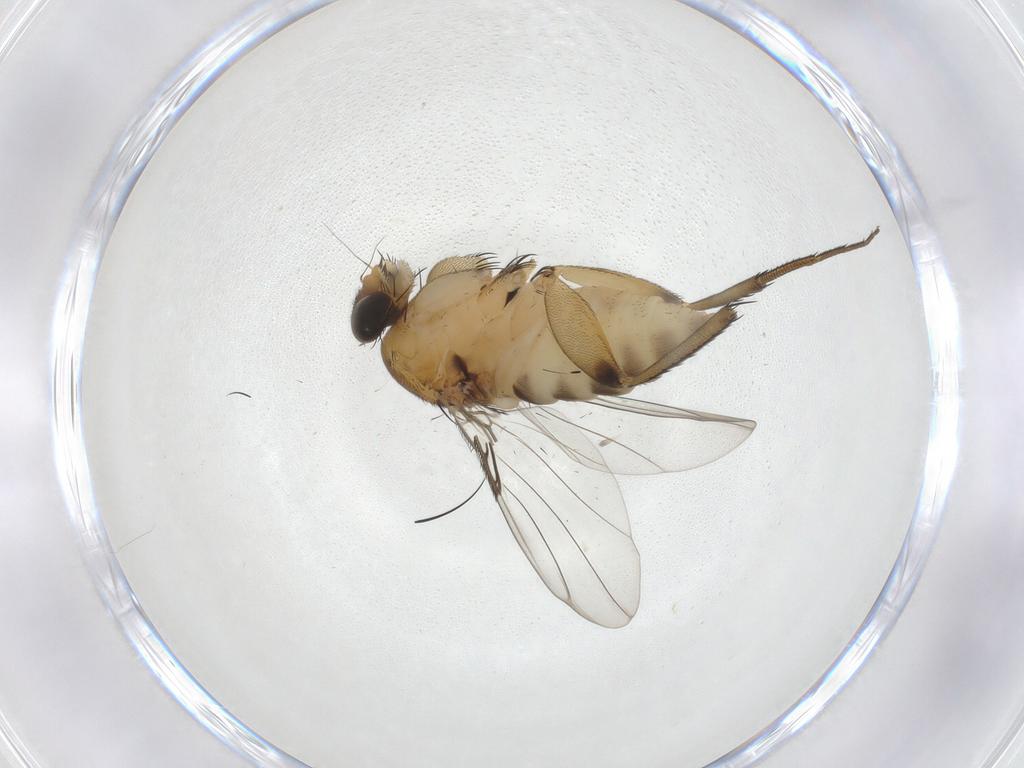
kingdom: Animalia
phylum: Arthropoda
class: Insecta
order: Diptera
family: Phoridae
